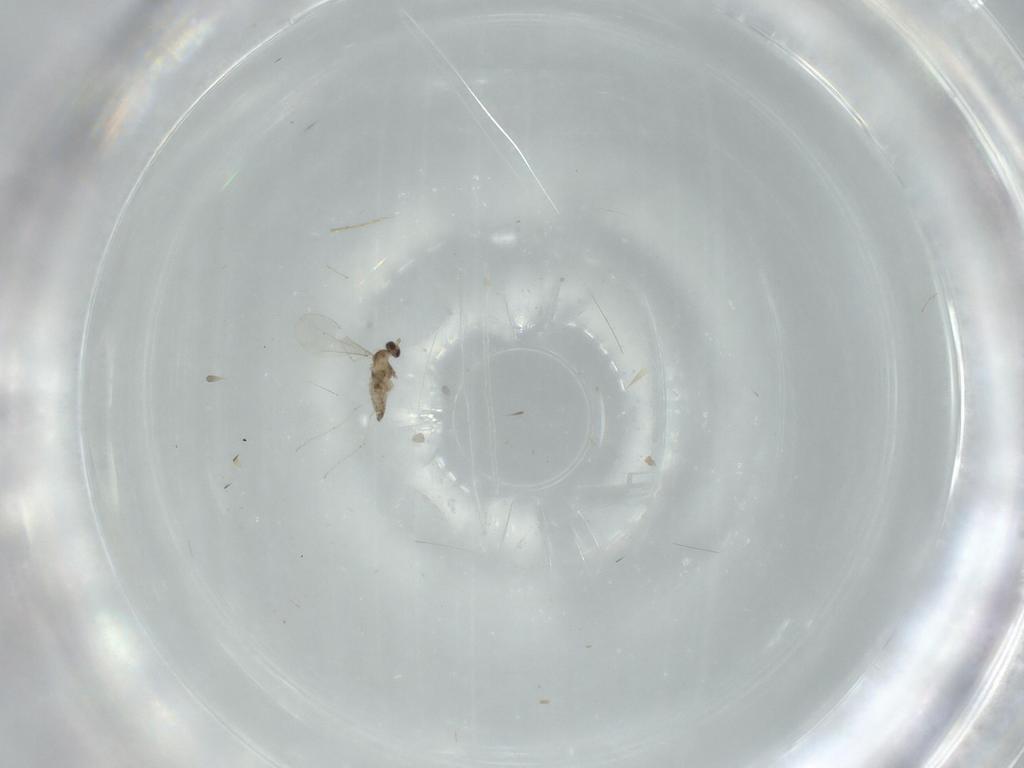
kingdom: Animalia
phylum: Arthropoda
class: Insecta
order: Diptera
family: Cecidomyiidae
